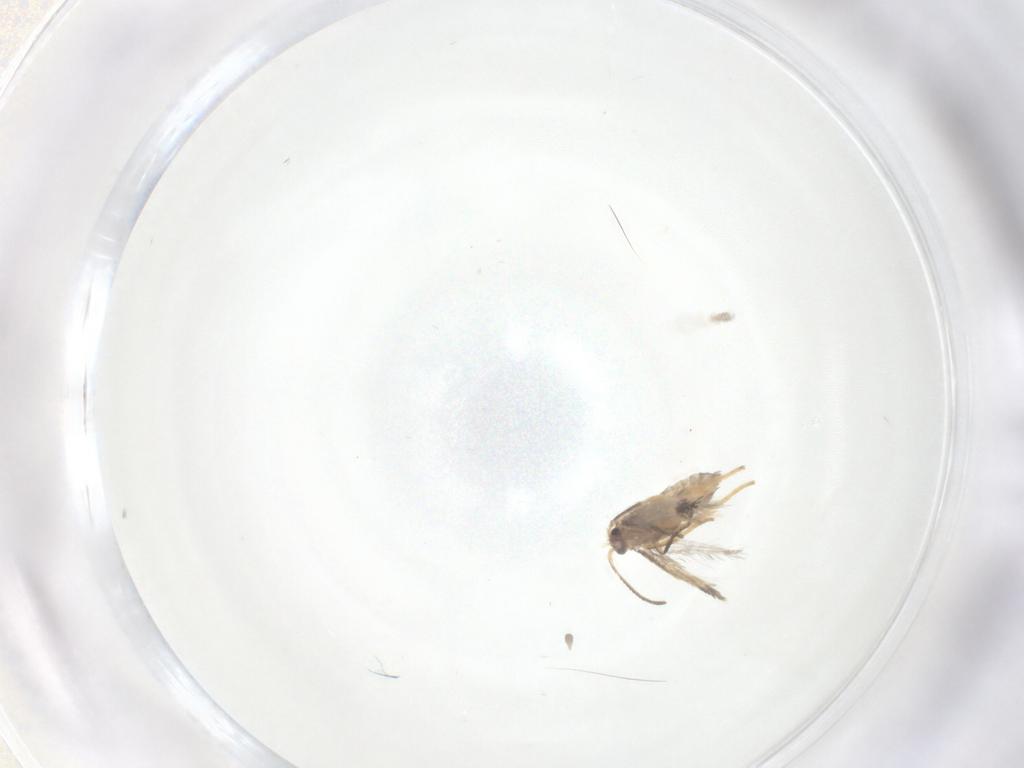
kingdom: Animalia
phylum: Arthropoda
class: Insecta
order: Lepidoptera
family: Nepticulidae
